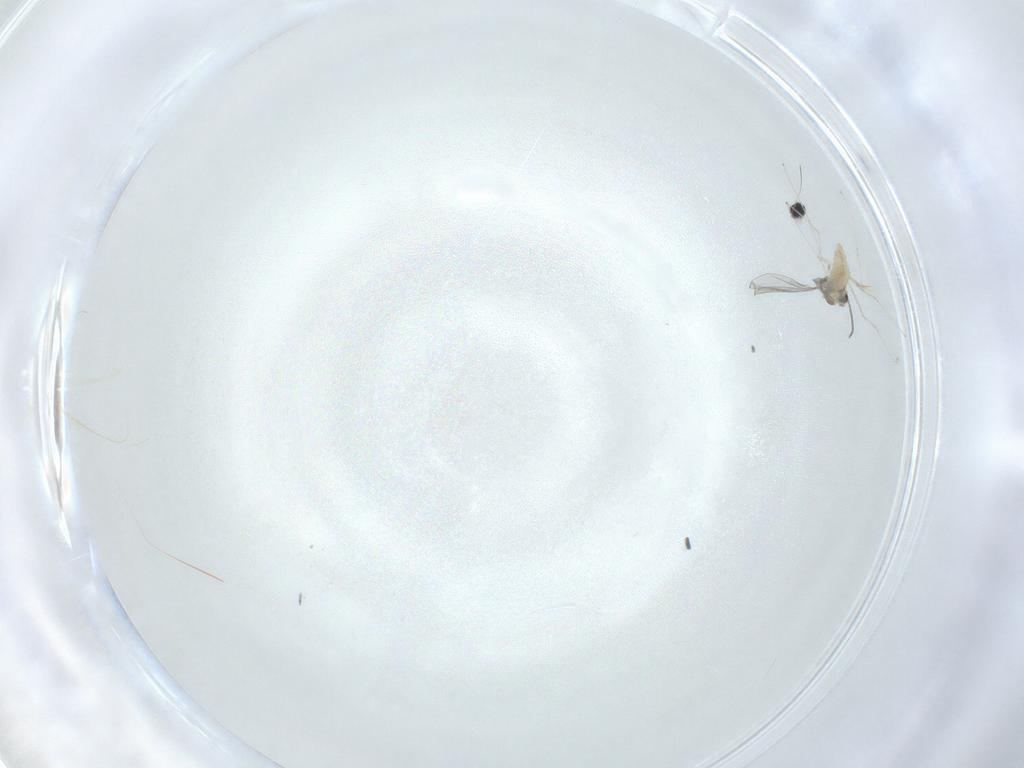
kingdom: Animalia
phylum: Arthropoda
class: Insecta
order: Diptera
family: Cecidomyiidae
